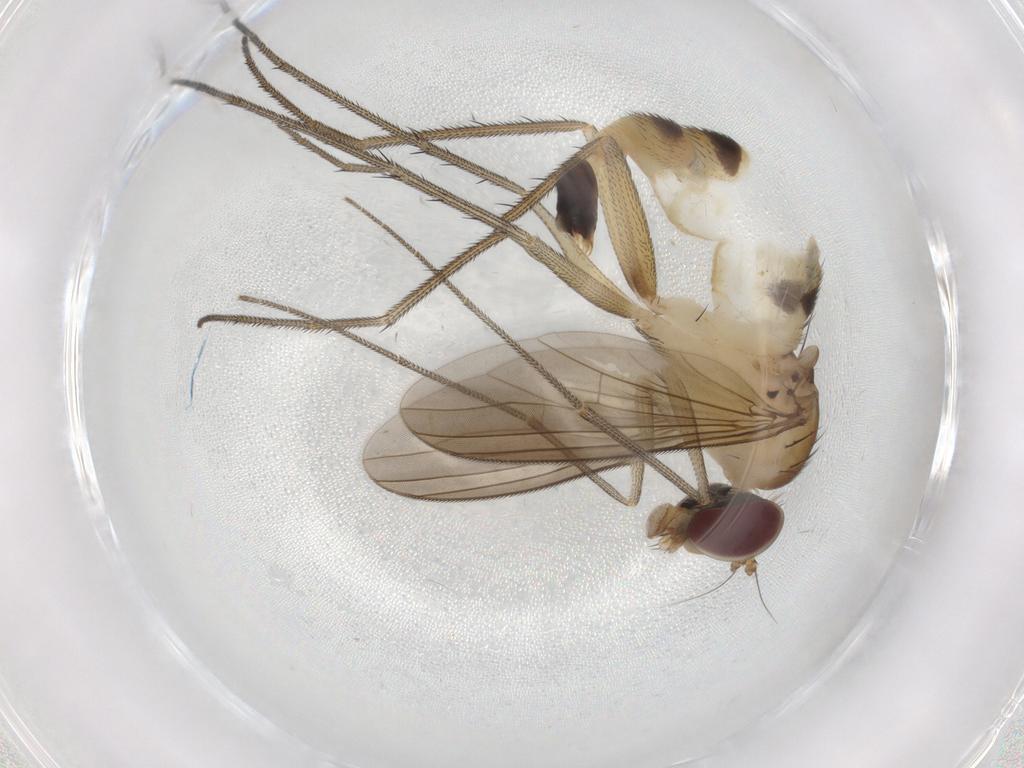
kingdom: Animalia
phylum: Arthropoda
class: Insecta
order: Diptera
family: Dolichopodidae
